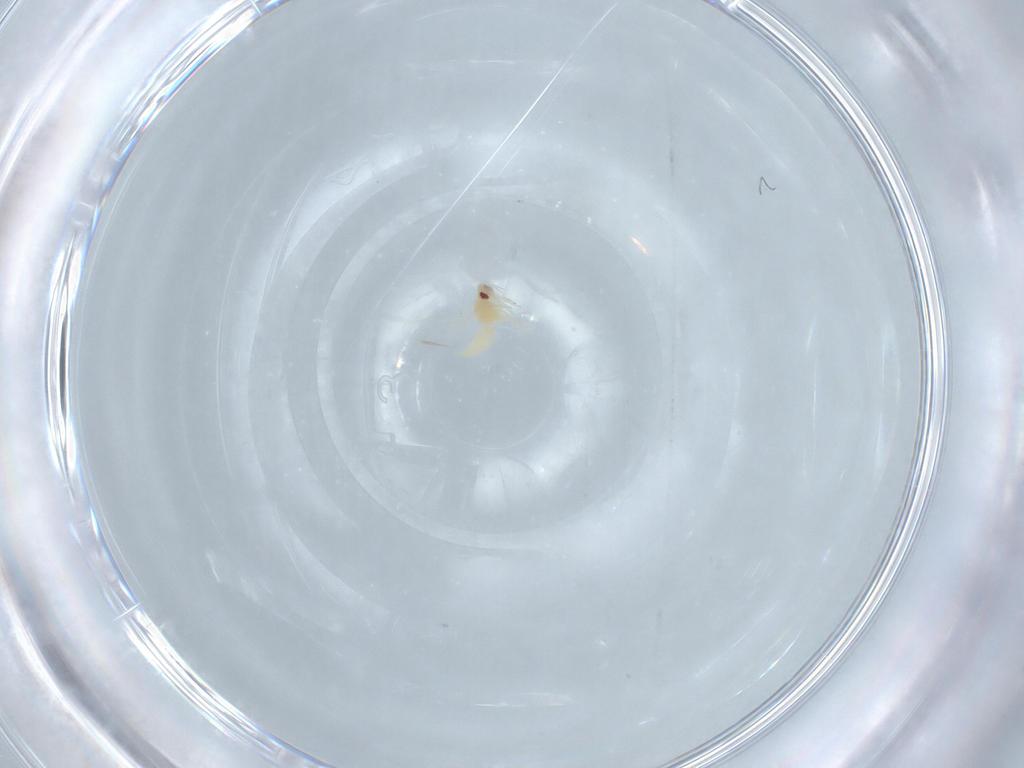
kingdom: Animalia
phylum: Arthropoda
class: Insecta
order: Hemiptera
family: Aleyrodidae
